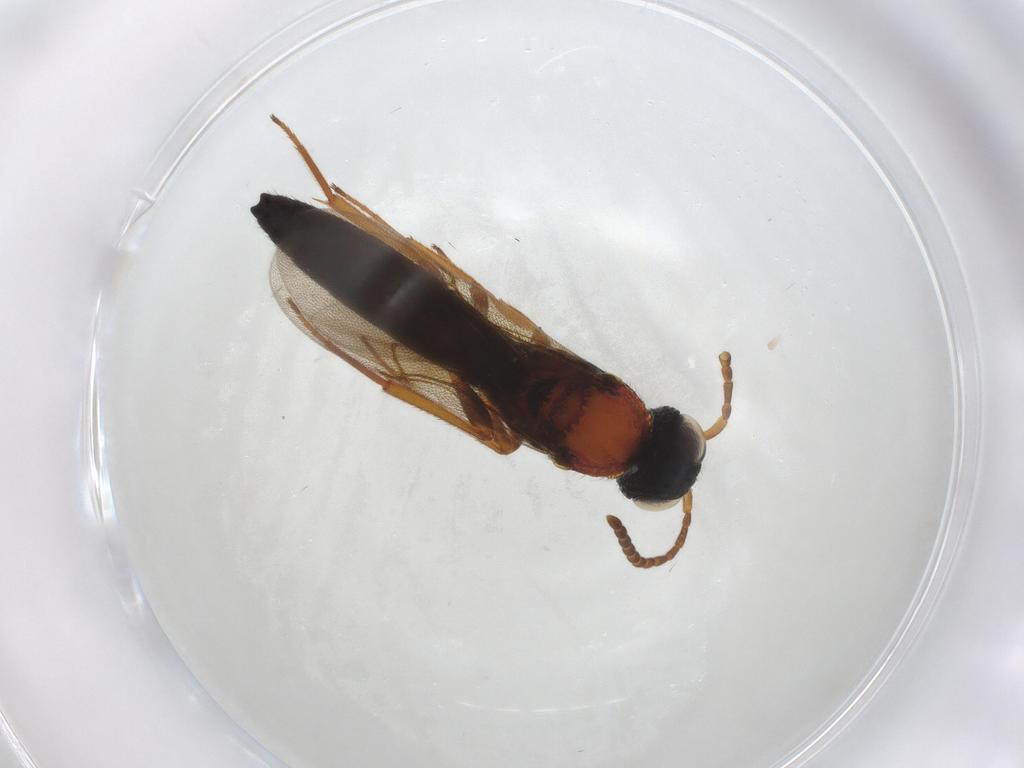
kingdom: Animalia
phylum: Arthropoda
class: Insecta
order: Hymenoptera
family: Scelionidae
